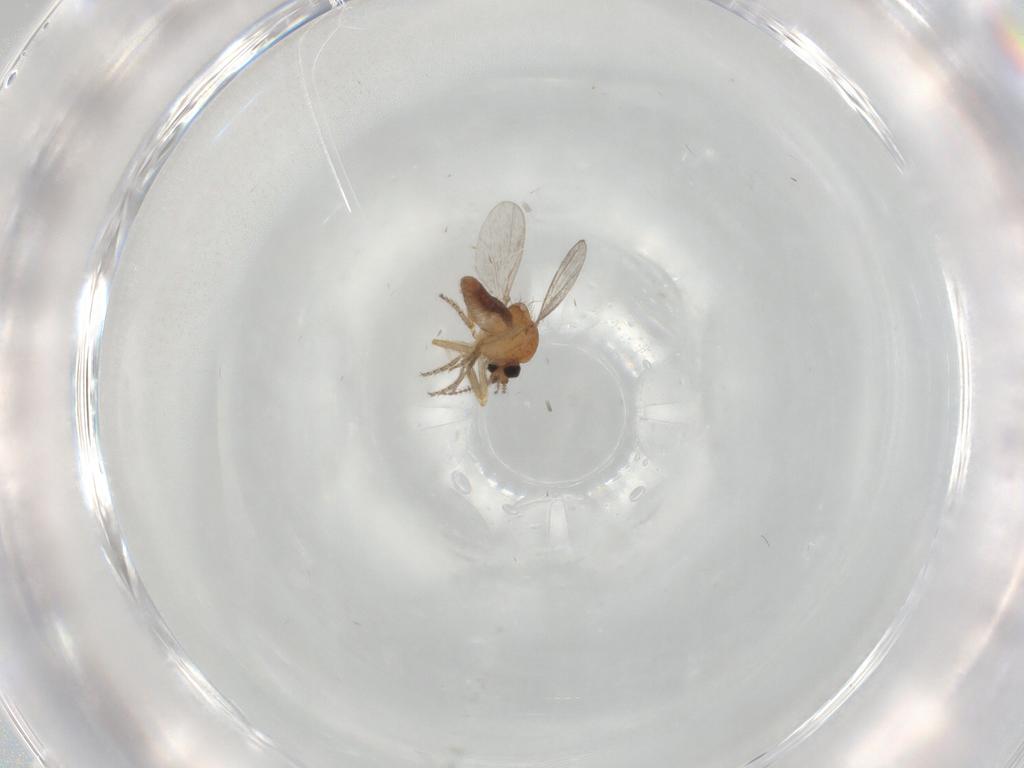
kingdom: Animalia
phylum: Arthropoda
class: Insecta
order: Diptera
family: Ceratopogonidae
